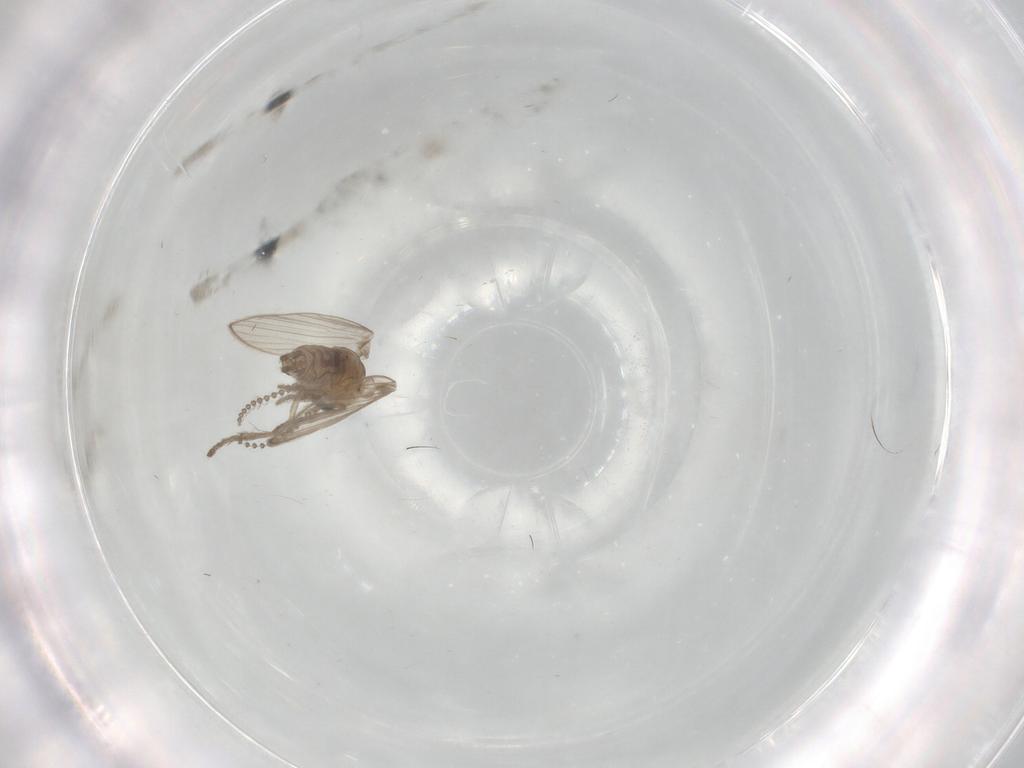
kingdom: Animalia
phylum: Arthropoda
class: Insecta
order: Diptera
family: Psychodidae
